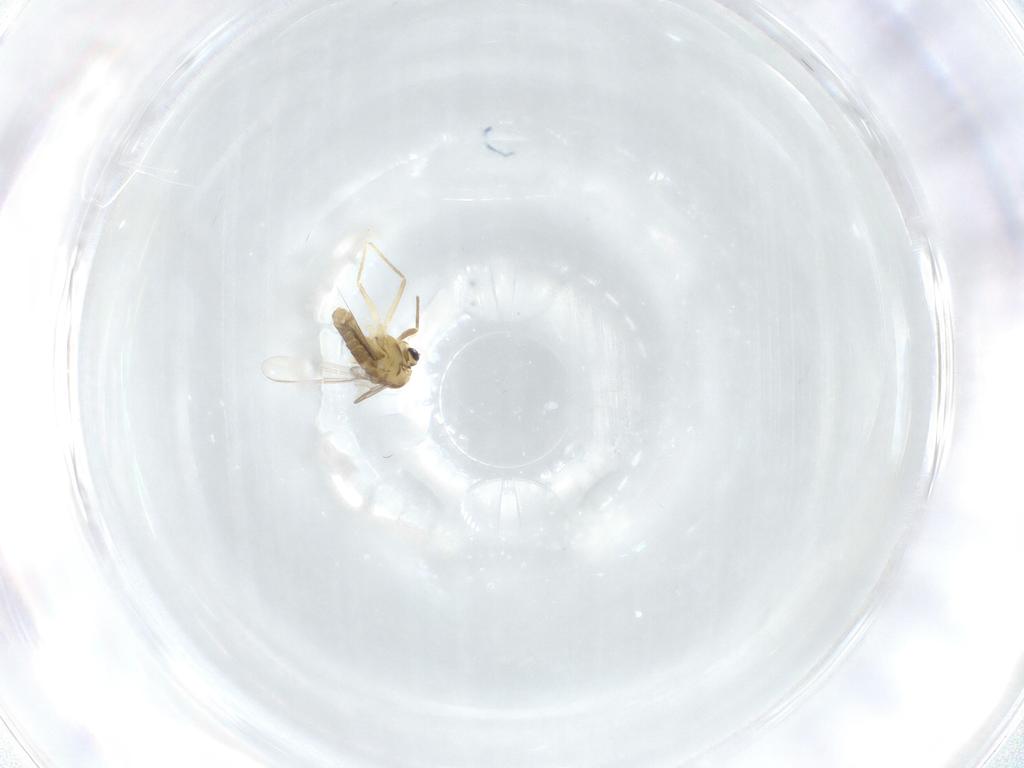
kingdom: Animalia
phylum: Arthropoda
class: Insecta
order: Diptera
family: Chironomidae
